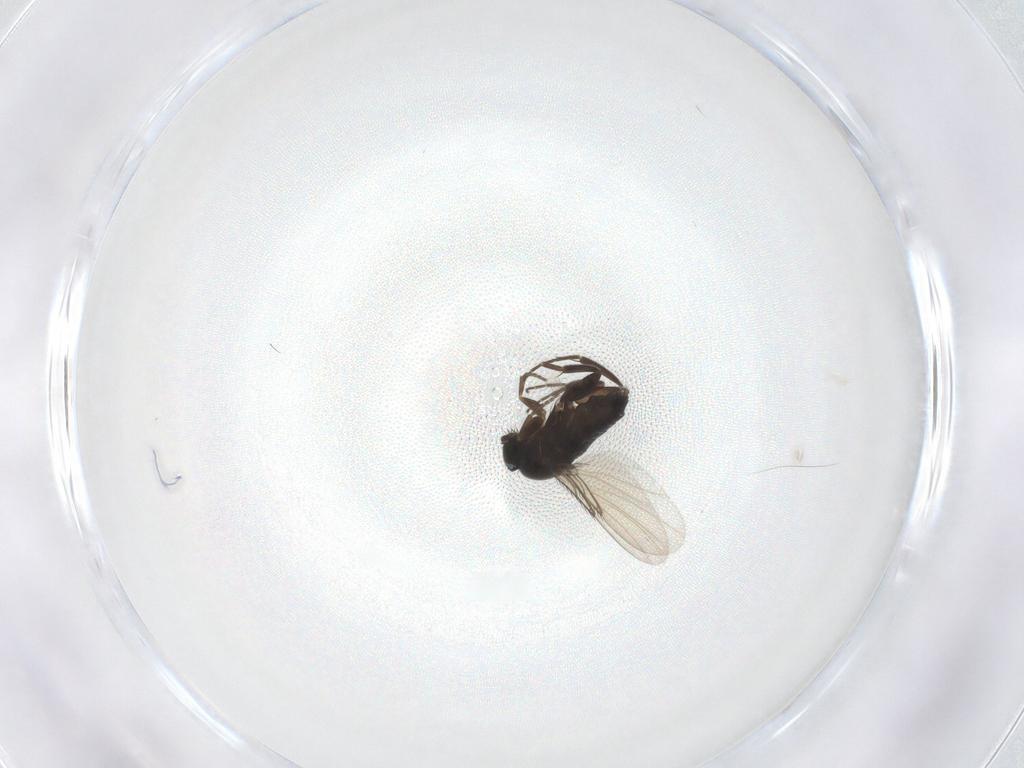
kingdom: Animalia
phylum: Arthropoda
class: Insecta
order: Diptera
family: Phoridae
